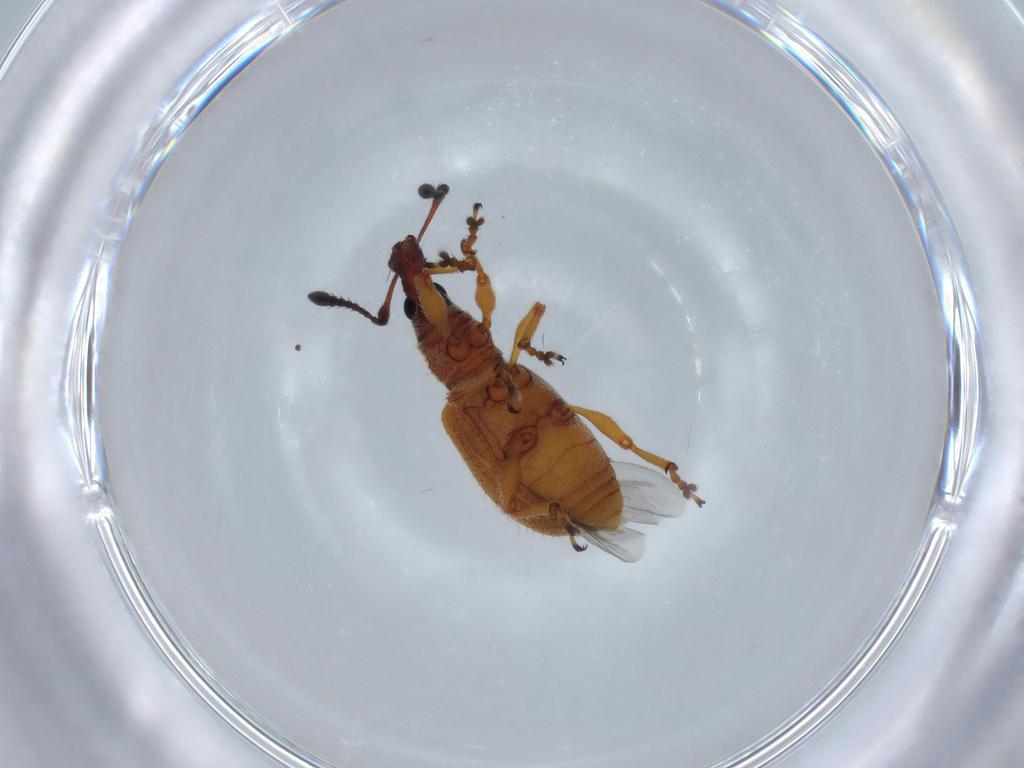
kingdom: Animalia
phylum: Arthropoda
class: Insecta
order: Coleoptera
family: Curculionidae
